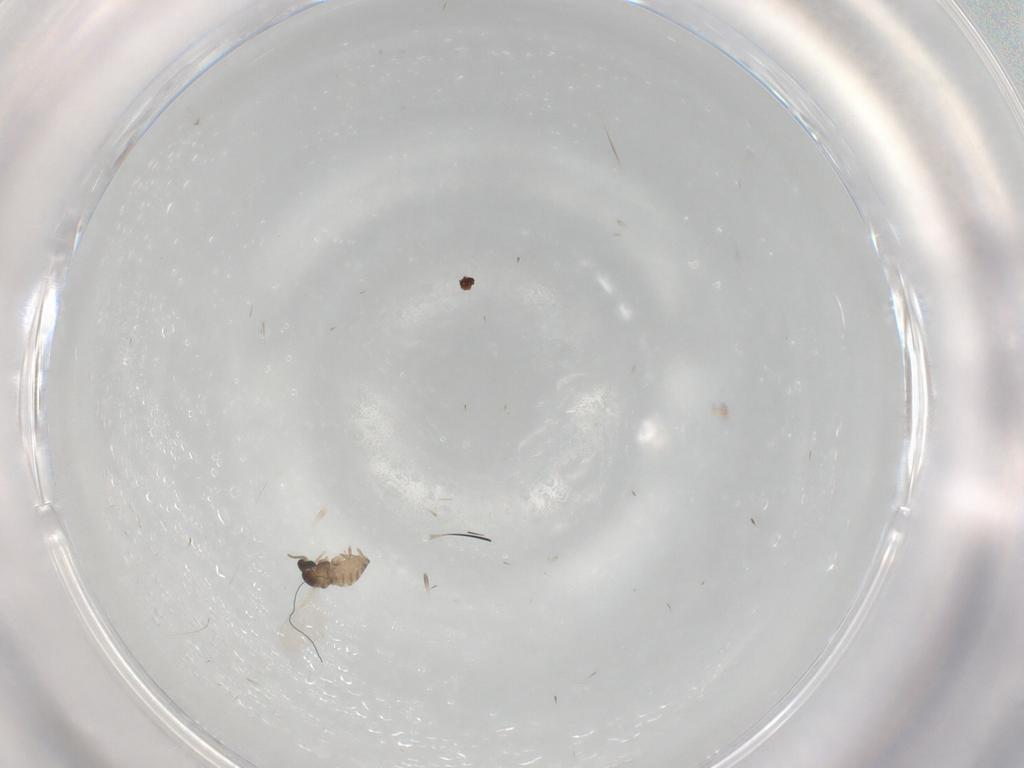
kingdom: Animalia
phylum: Arthropoda
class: Insecta
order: Diptera
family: Cecidomyiidae
